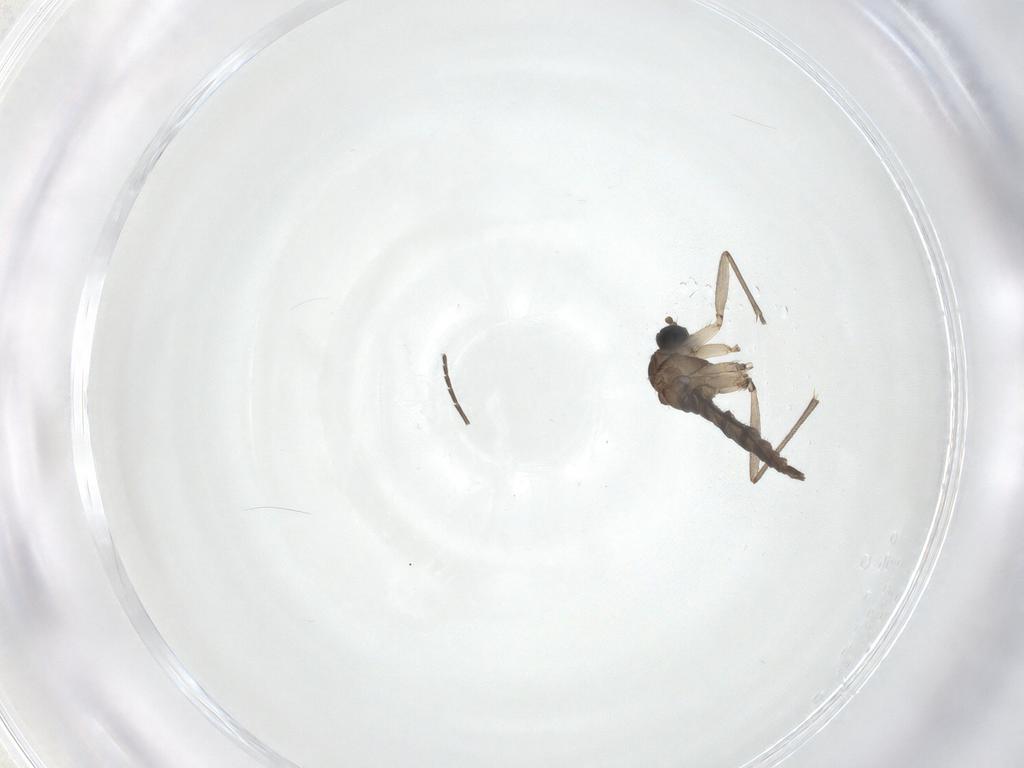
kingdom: Animalia
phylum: Arthropoda
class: Insecta
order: Diptera
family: Sciaridae
